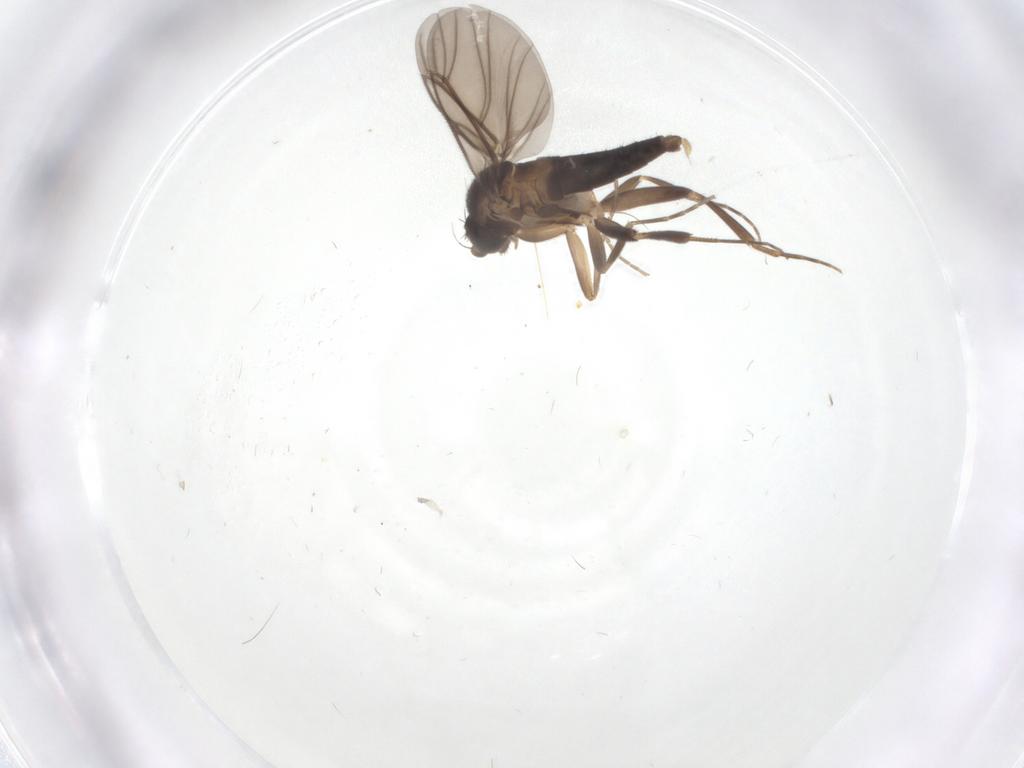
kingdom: Animalia
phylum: Arthropoda
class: Insecta
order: Diptera
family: Phoridae
